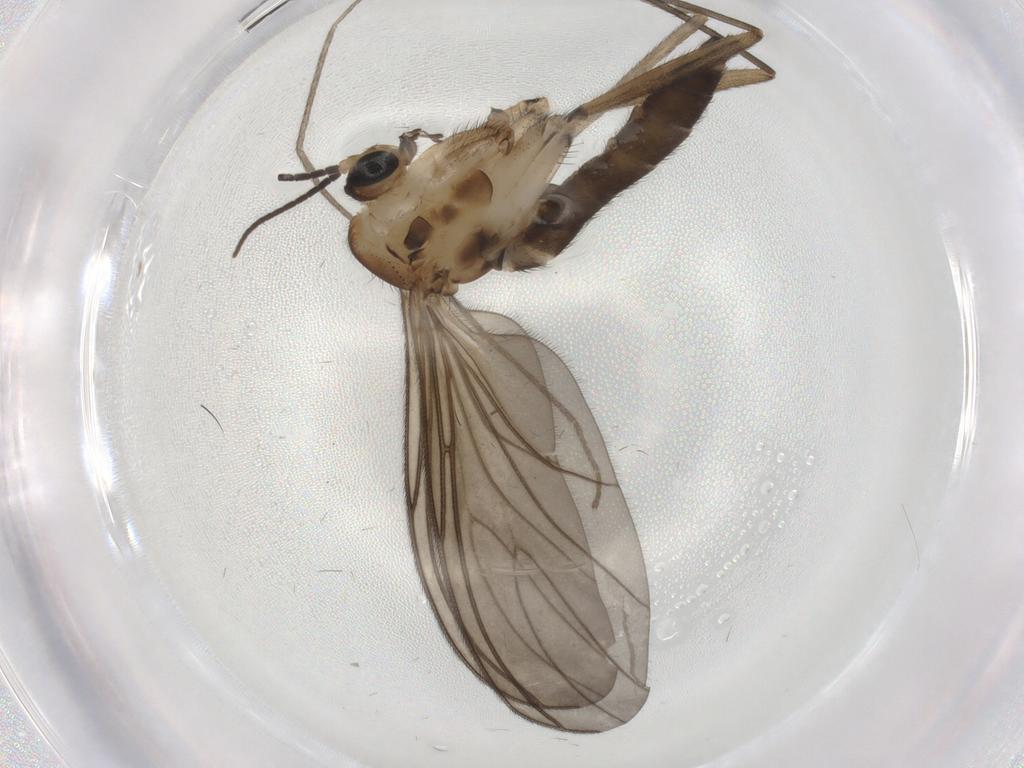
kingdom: Animalia
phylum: Arthropoda
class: Insecta
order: Diptera
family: Sciaridae
